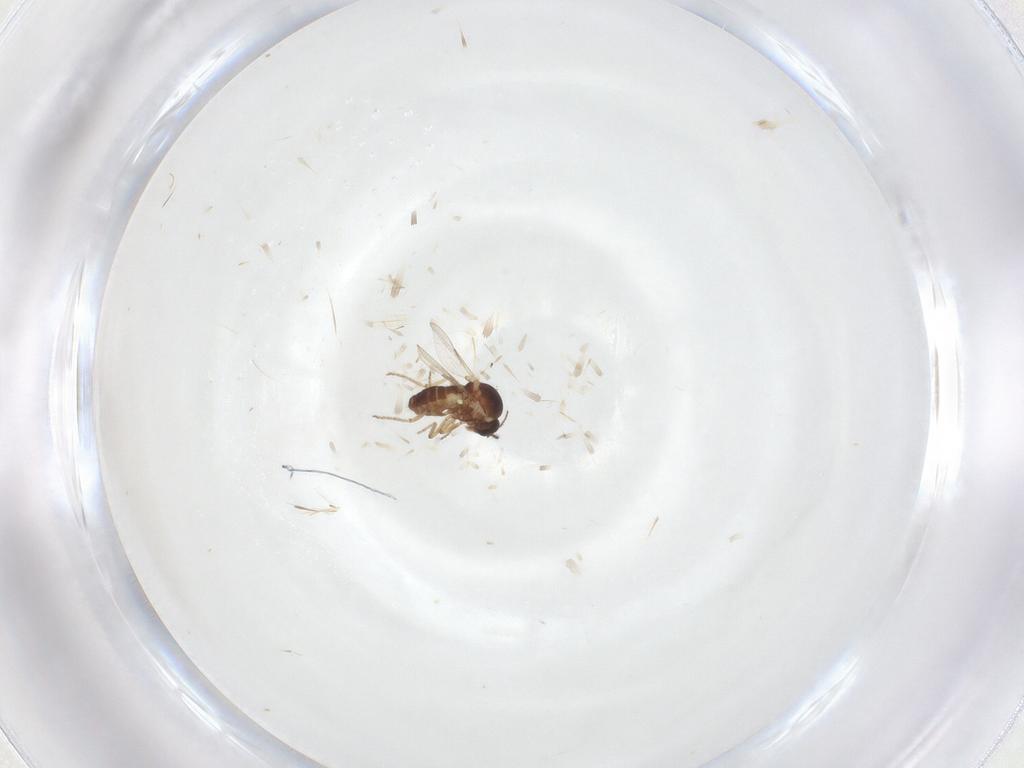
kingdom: Animalia
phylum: Arthropoda
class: Insecta
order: Diptera
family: Ceratopogonidae
